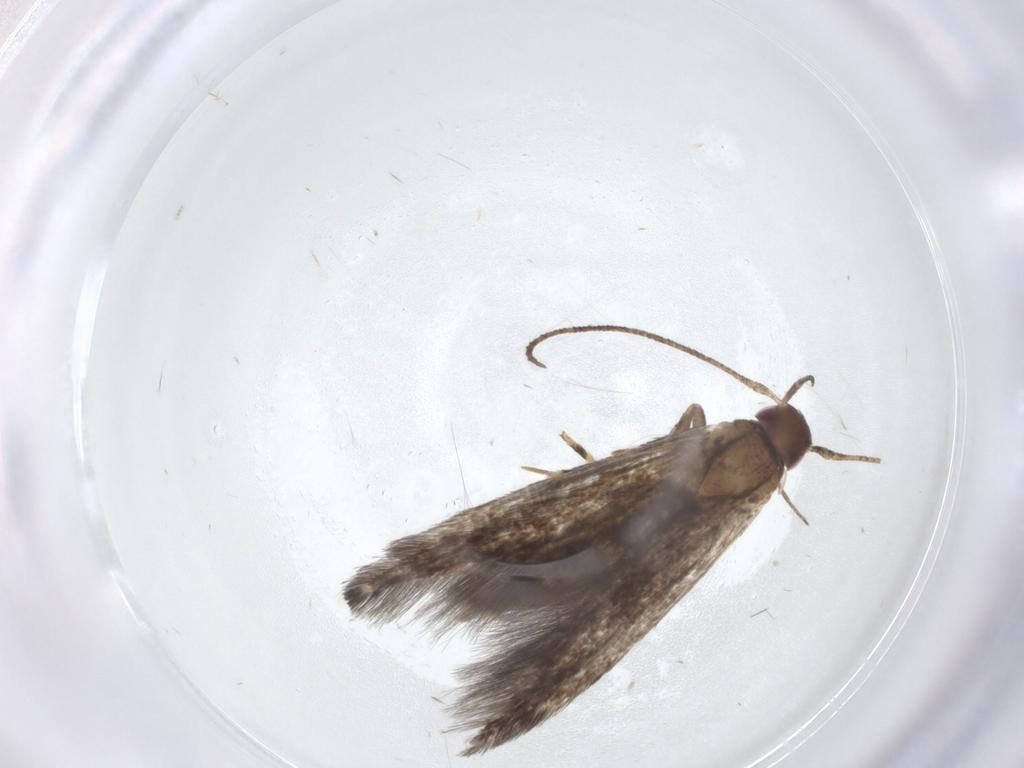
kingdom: Animalia
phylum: Arthropoda
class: Insecta
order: Lepidoptera
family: Cosmopterigidae
